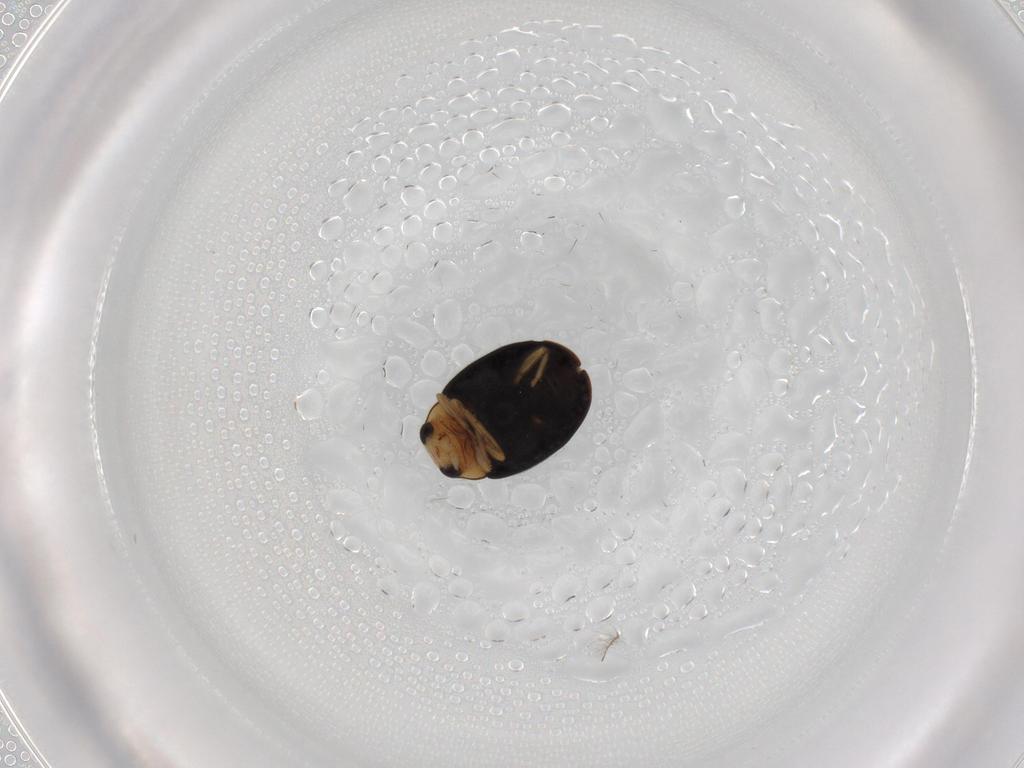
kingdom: Animalia
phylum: Arthropoda
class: Insecta
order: Coleoptera
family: Coccinellidae
